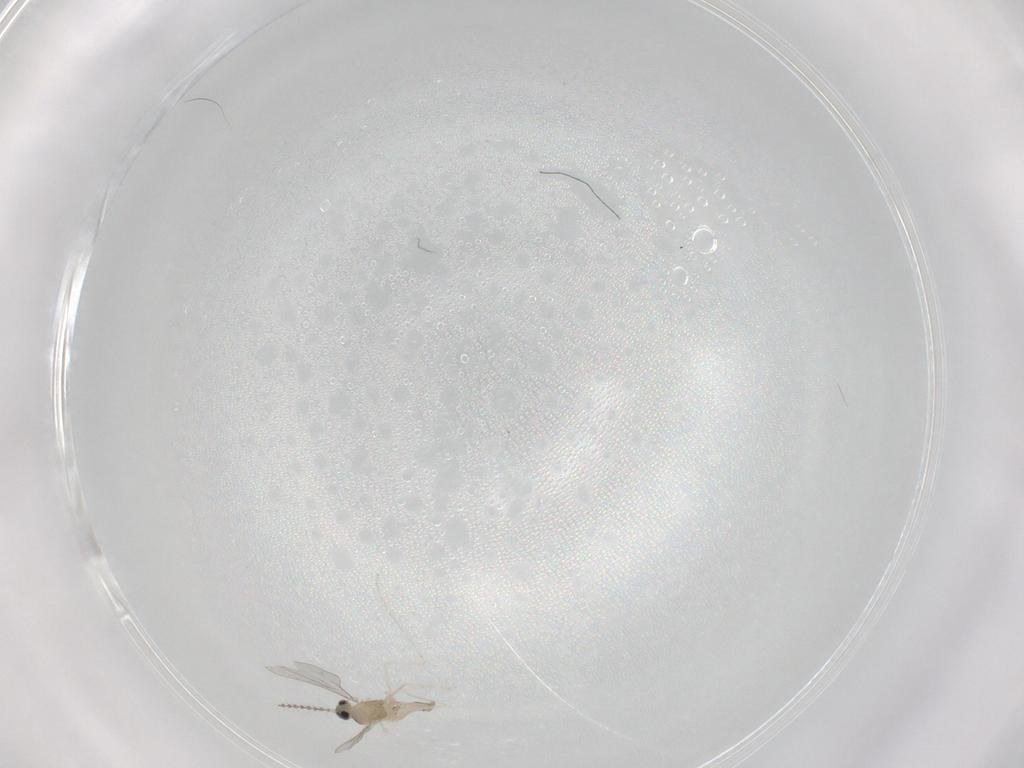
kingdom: Animalia
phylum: Arthropoda
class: Insecta
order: Diptera
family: Cecidomyiidae
